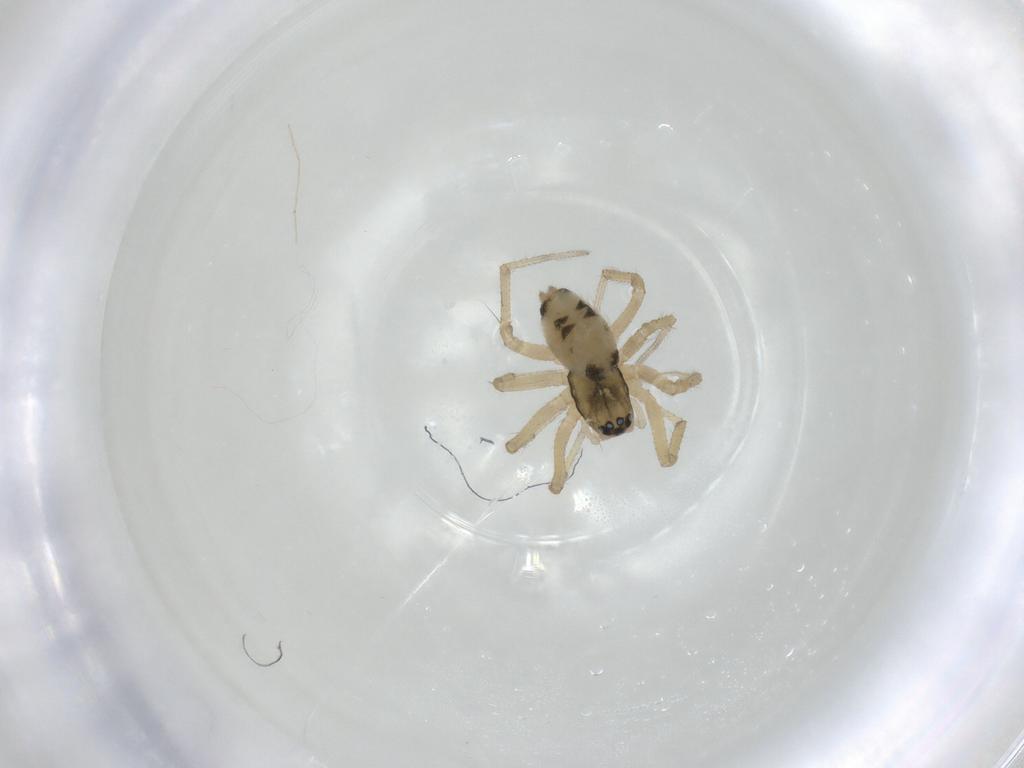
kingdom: Animalia
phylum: Arthropoda
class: Arachnida
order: Araneae
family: Linyphiidae
